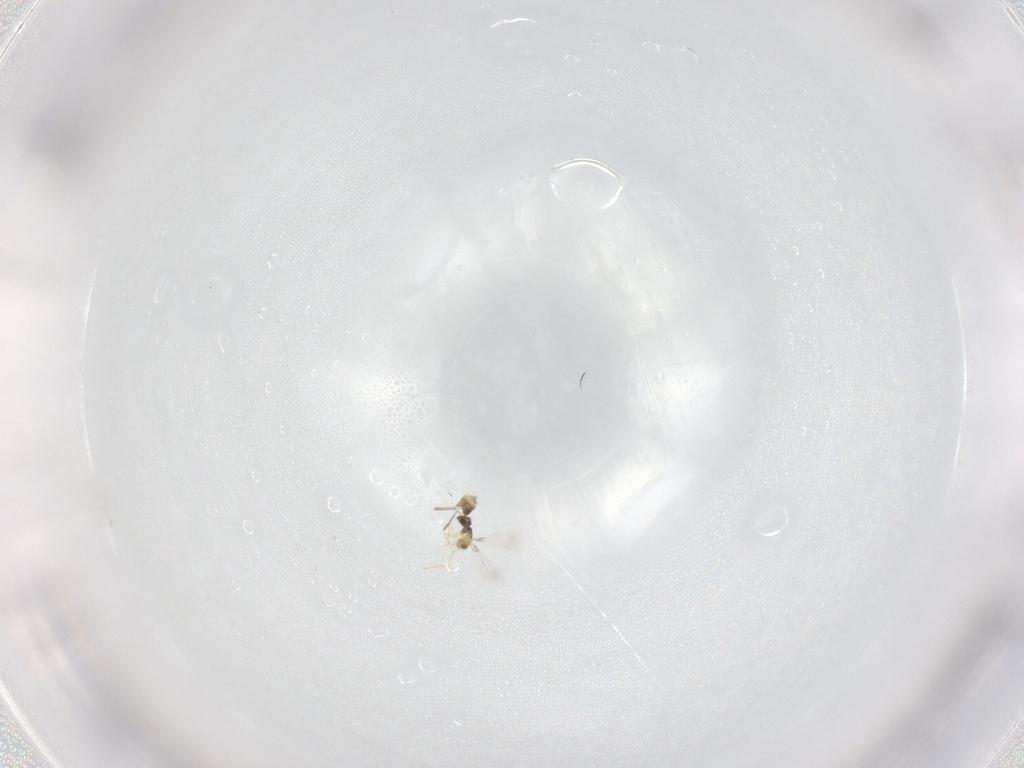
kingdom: Animalia
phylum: Arthropoda
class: Insecta
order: Hymenoptera
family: Mymaridae
